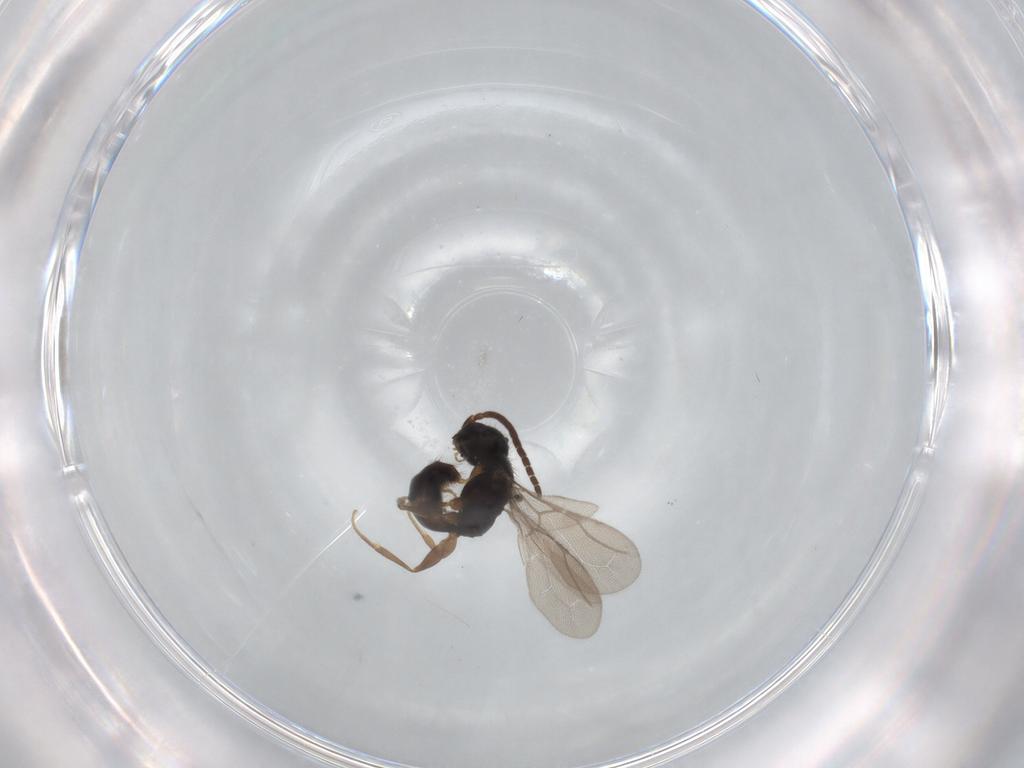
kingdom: Animalia
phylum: Arthropoda
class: Insecta
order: Hymenoptera
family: Bethylidae
